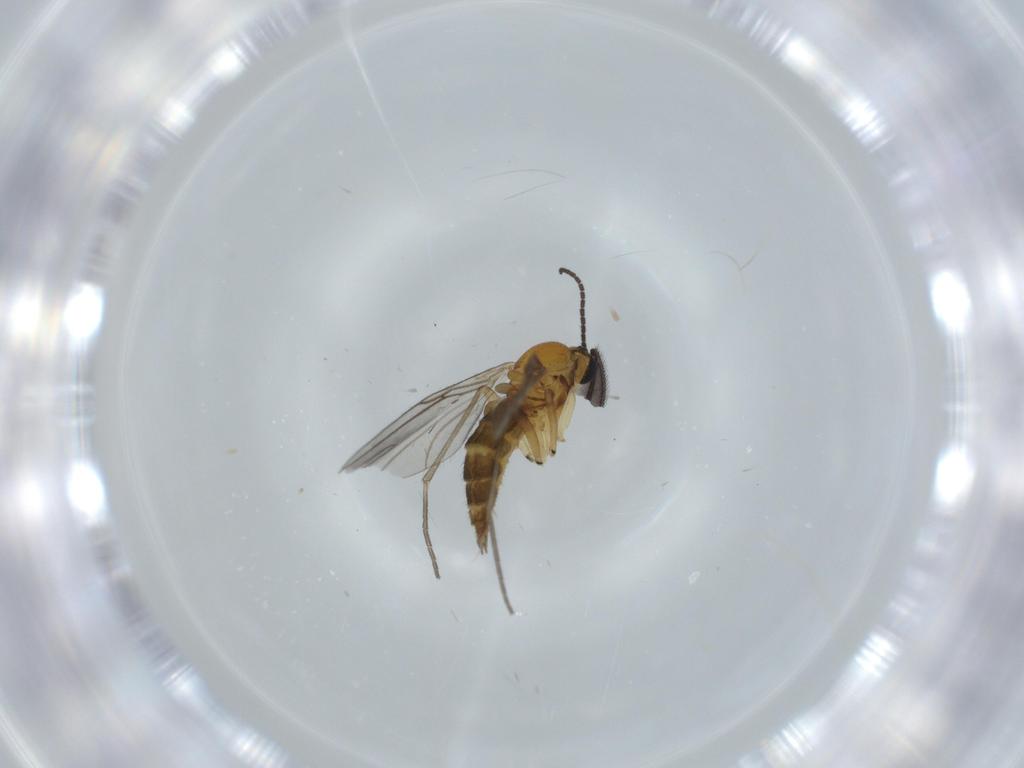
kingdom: Animalia
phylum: Arthropoda
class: Insecta
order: Diptera
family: Sciaridae
